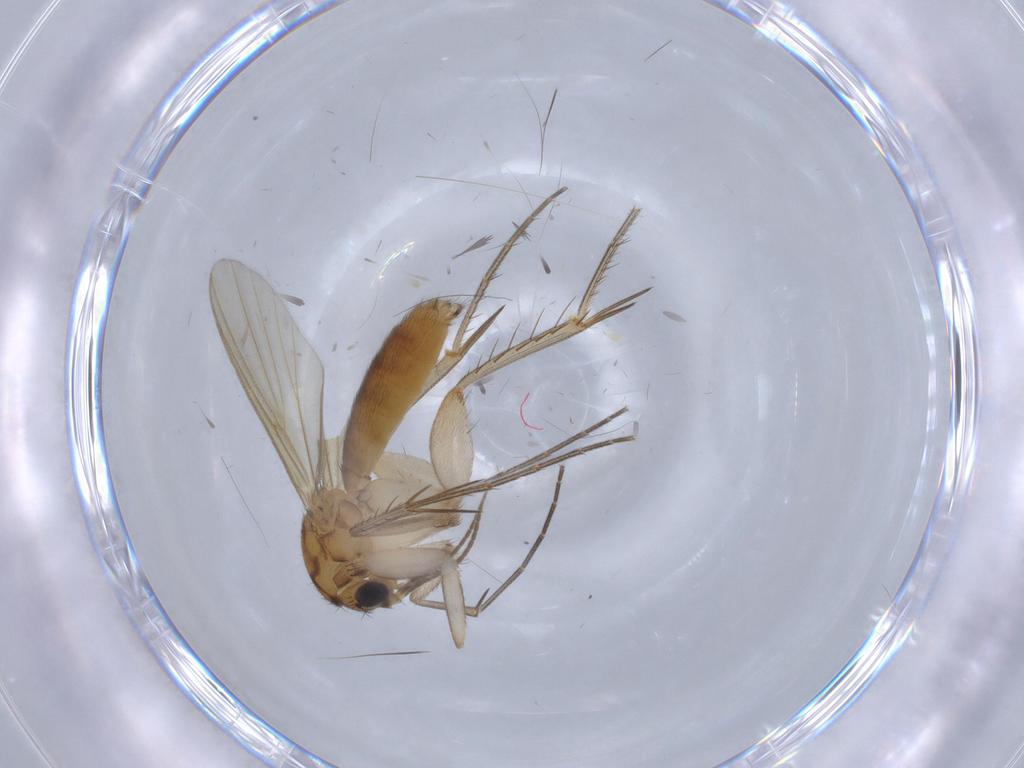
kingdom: Animalia
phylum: Arthropoda
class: Insecta
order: Diptera
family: Mycetophilidae
